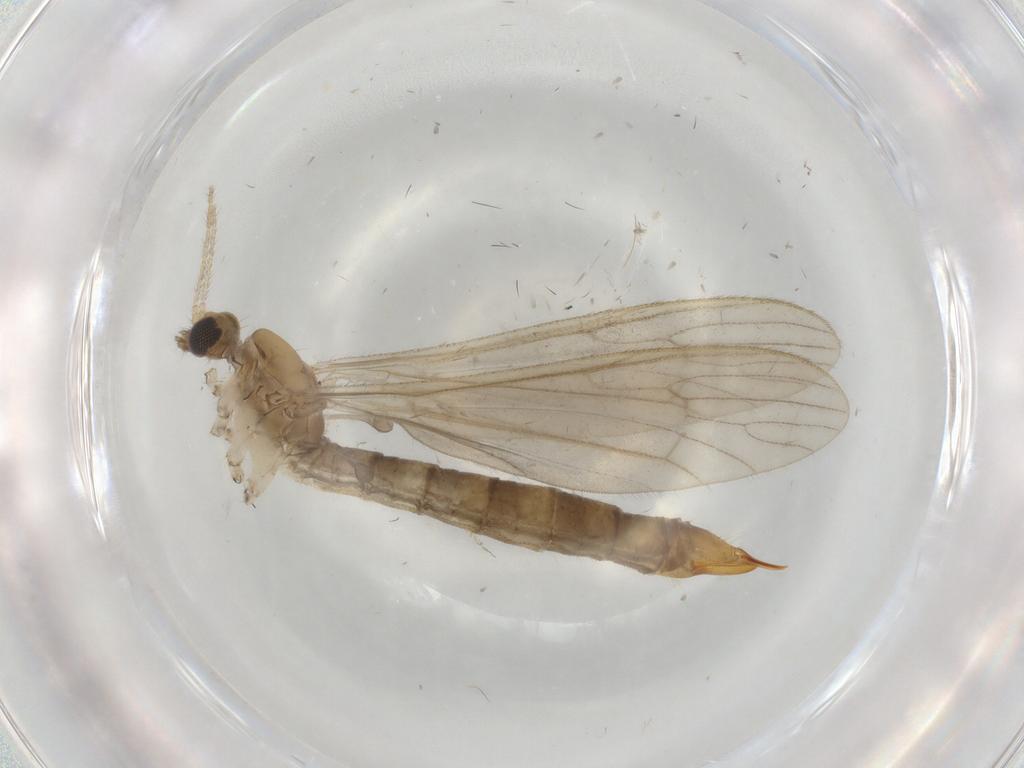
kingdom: Animalia
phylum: Arthropoda
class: Insecta
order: Diptera
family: Limoniidae
